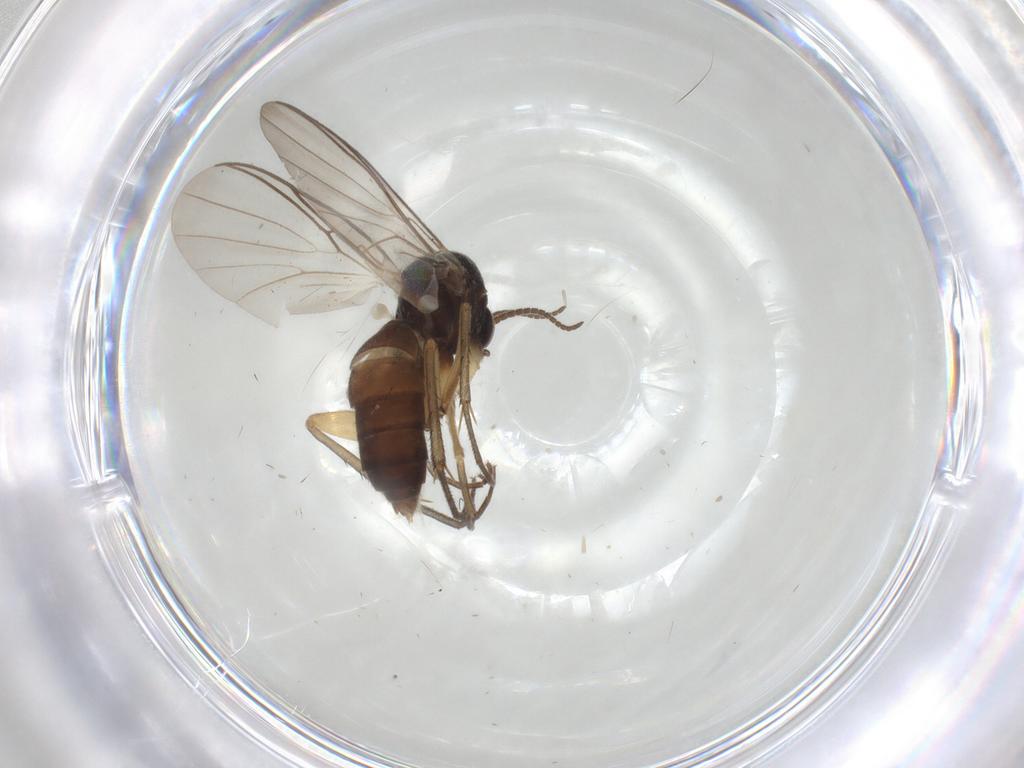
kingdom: Animalia
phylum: Arthropoda
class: Insecta
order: Diptera
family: Mycetophilidae
